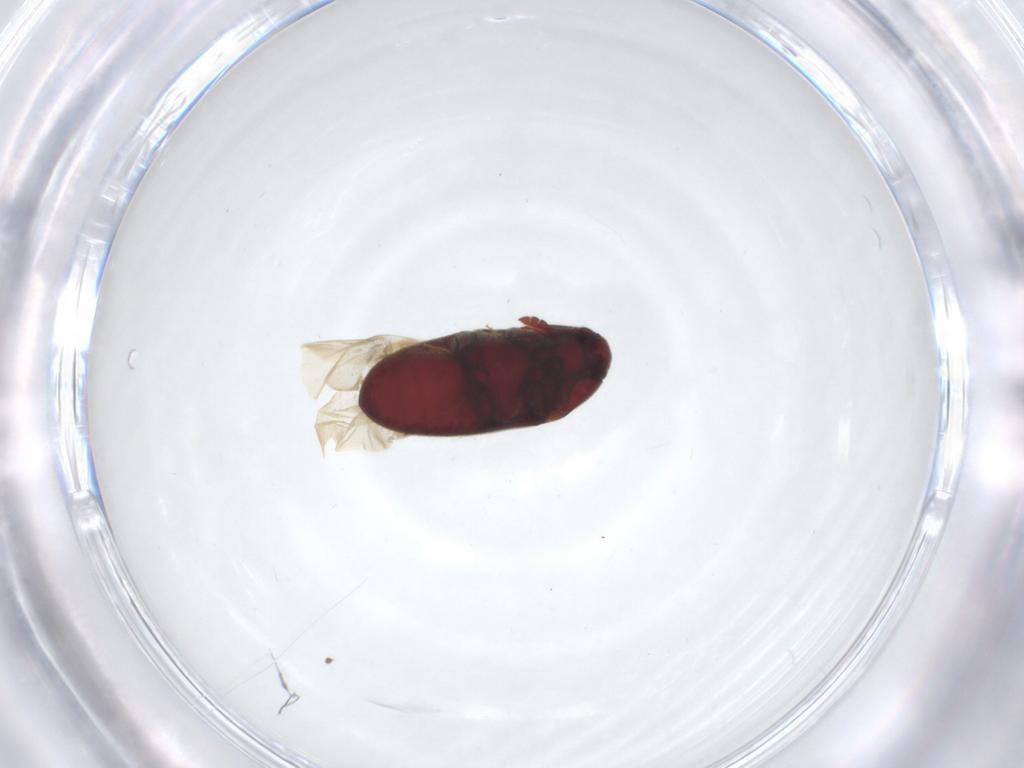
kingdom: Animalia
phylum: Arthropoda
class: Insecta
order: Coleoptera
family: Throscidae
